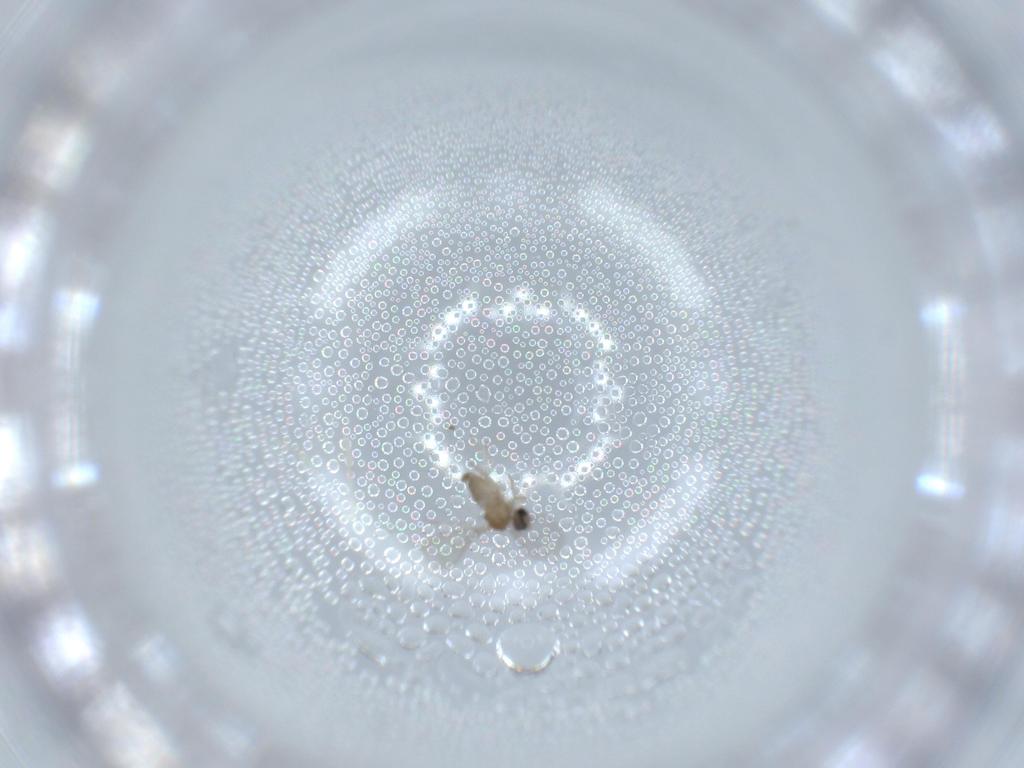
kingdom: Animalia
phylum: Arthropoda
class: Insecta
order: Diptera
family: Cecidomyiidae
